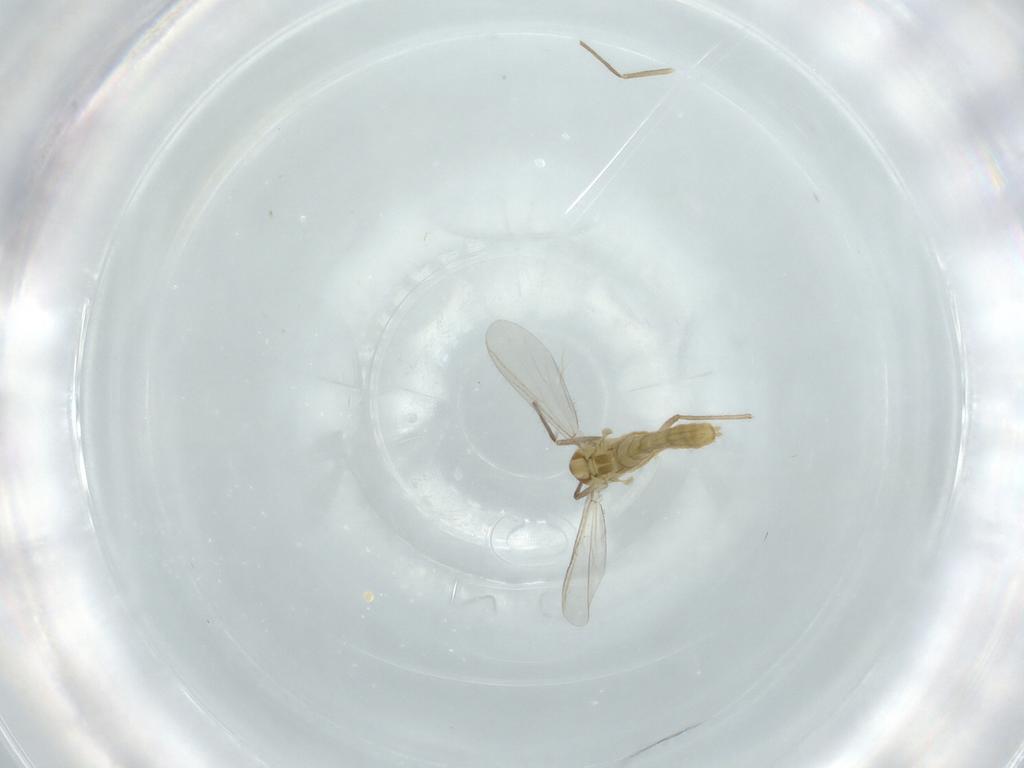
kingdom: Animalia
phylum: Arthropoda
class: Insecta
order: Diptera
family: Chironomidae
